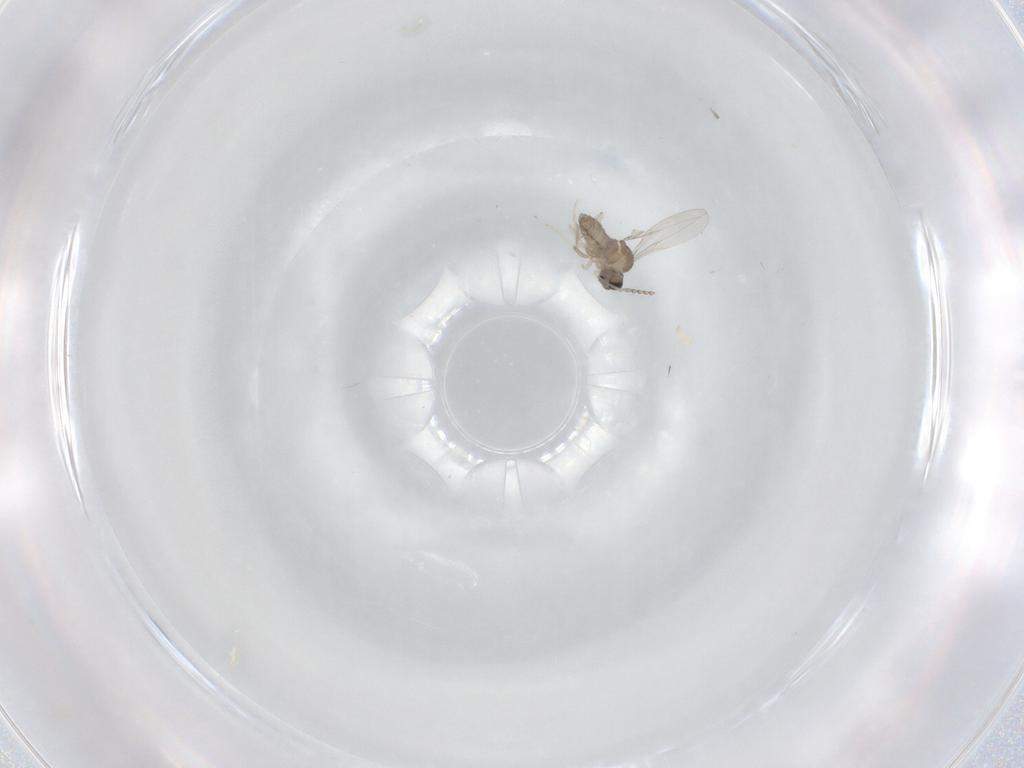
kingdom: Animalia
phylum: Arthropoda
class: Insecta
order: Diptera
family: Cecidomyiidae
